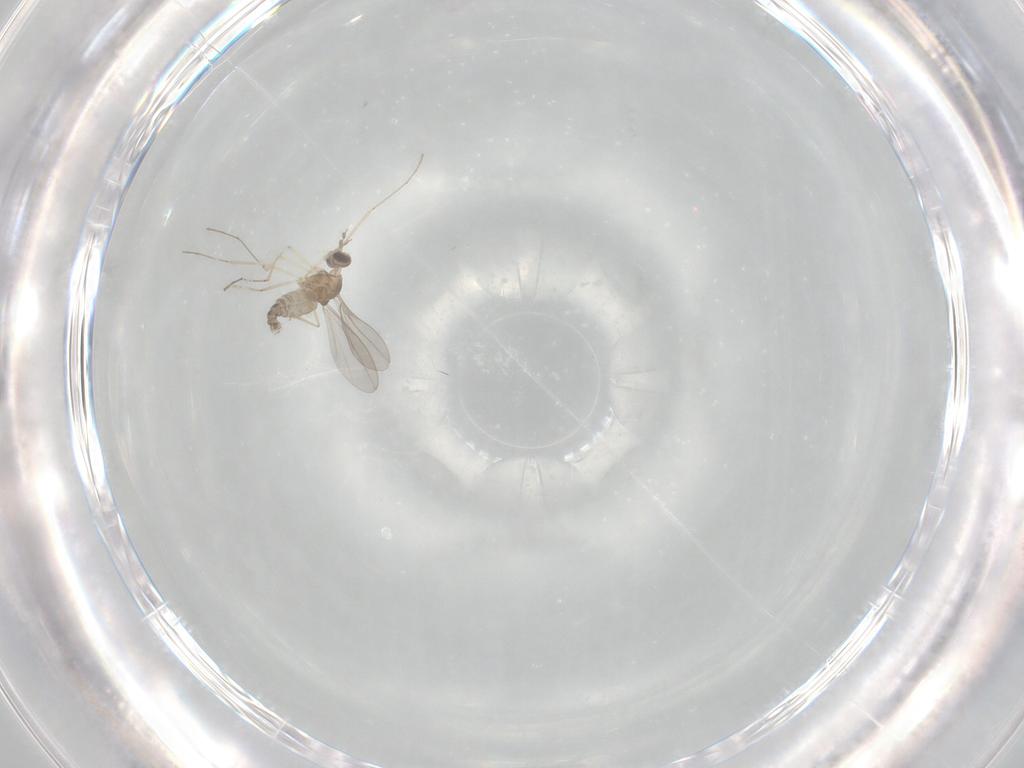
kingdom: Animalia
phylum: Arthropoda
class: Insecta
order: Diptera
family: Cecidomyiidae
